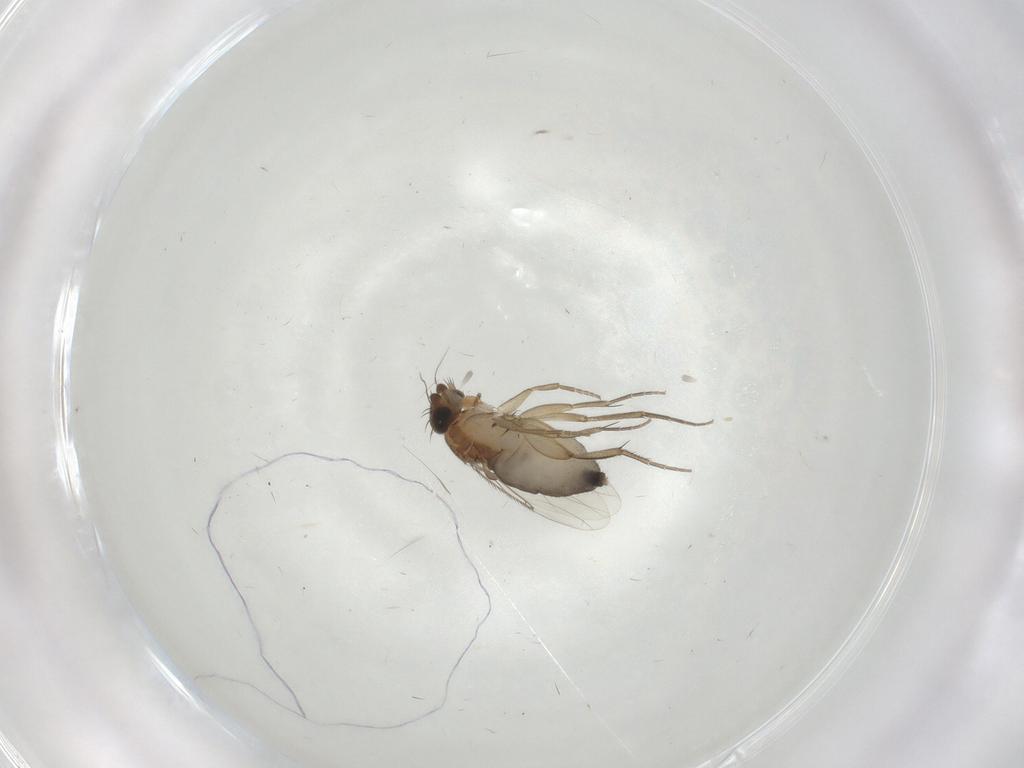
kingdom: Animalia
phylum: Arthropoda
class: Insecta
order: Diptera
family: Phoridae
